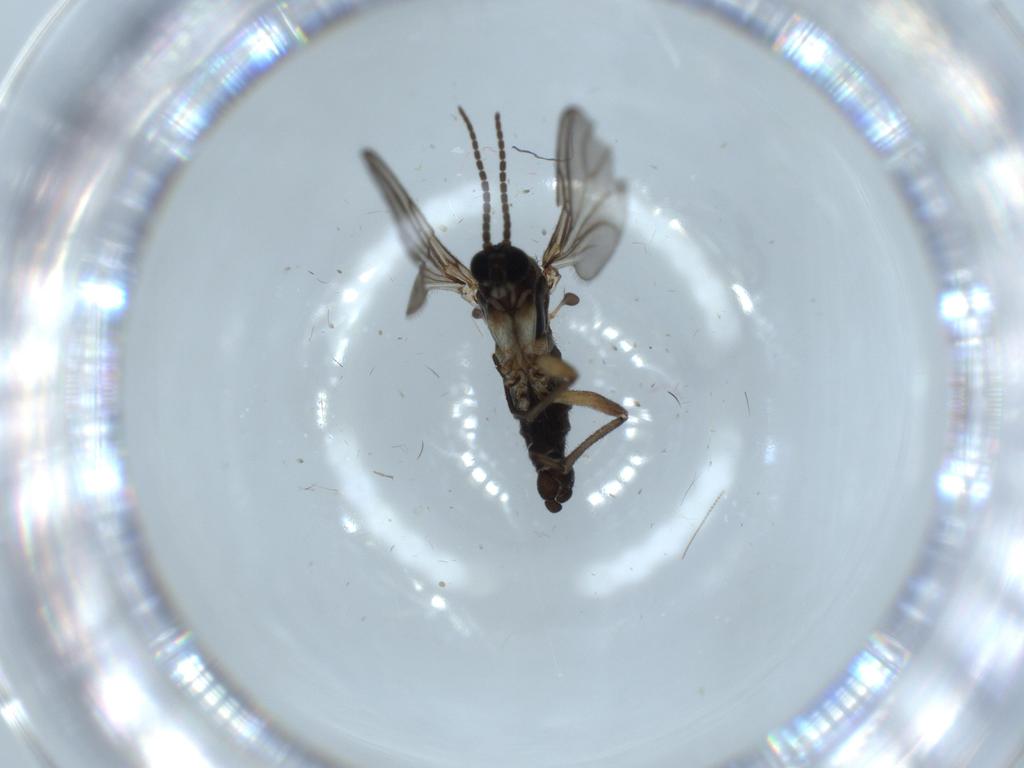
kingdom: Animalia
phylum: Arthropoda
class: Insecta
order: Diptera
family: Sciaridae
